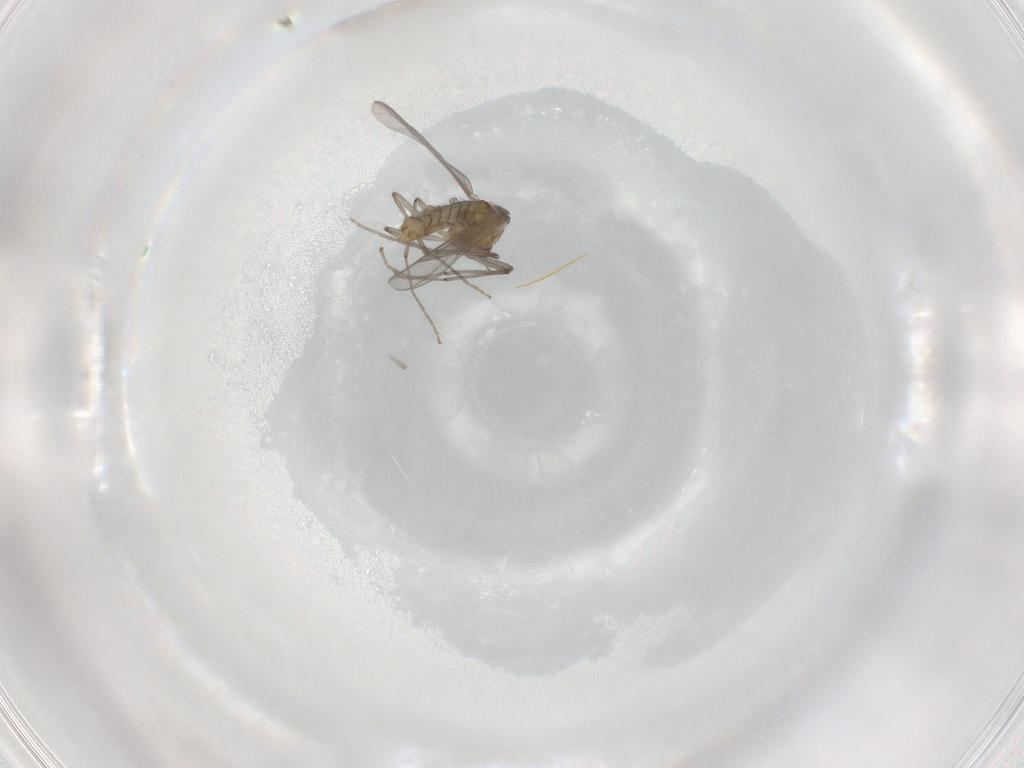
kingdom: Animalia
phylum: Arthropoda
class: Insecta
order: Diptera
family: Chironomidae
